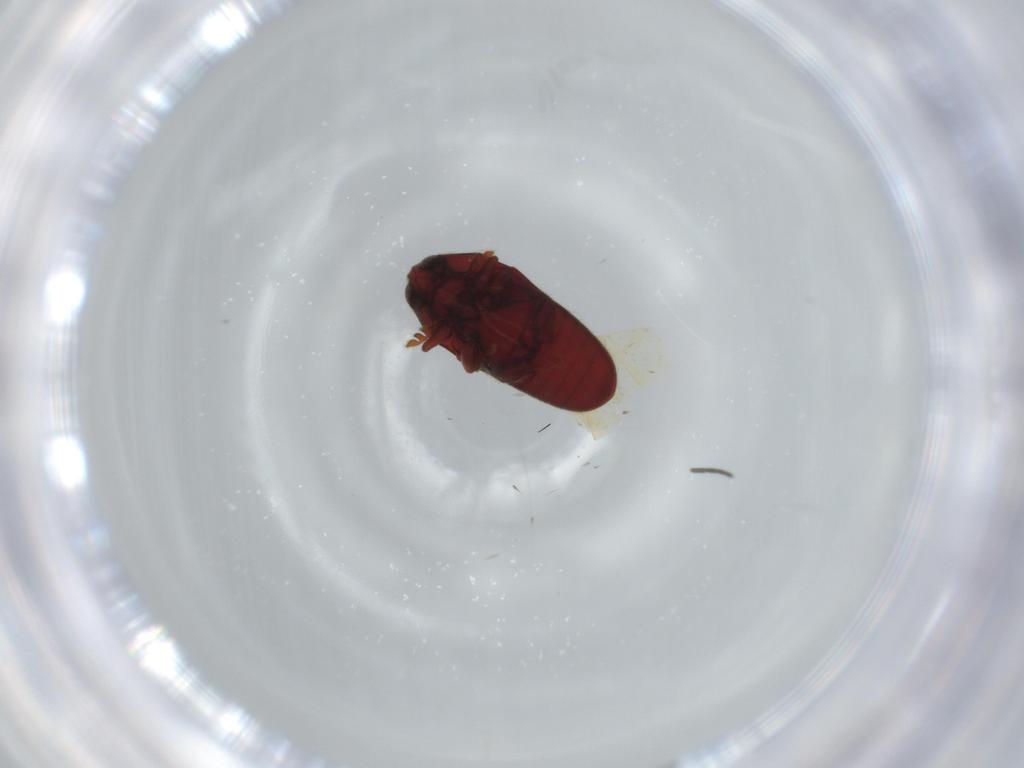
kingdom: Animalia
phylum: Arthropoda
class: Insecta
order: Coleoptera
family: Throscidae
